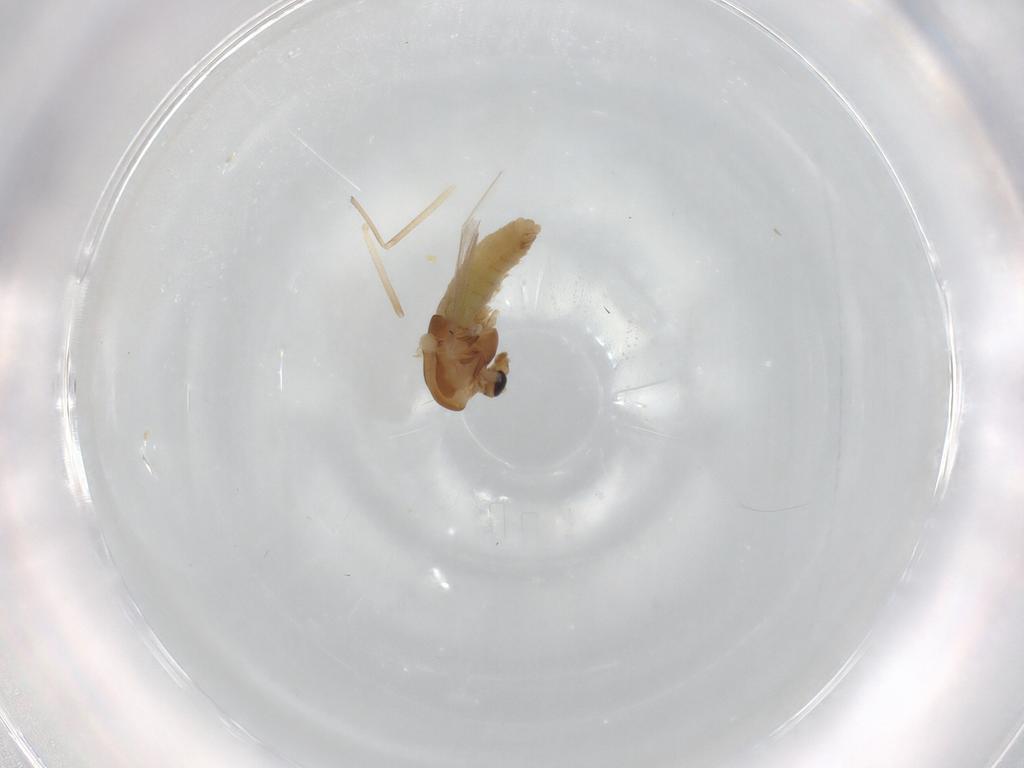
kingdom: Animalia
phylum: Arthropoda
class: Insecta
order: Diptera
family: Chironomidae
